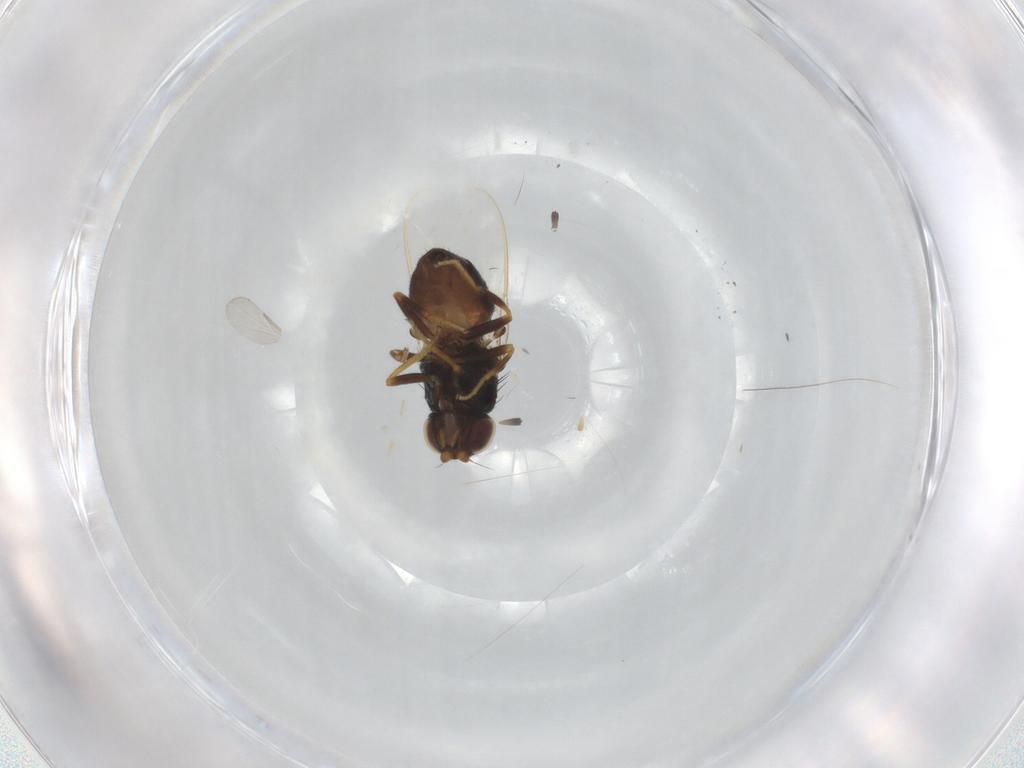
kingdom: Animalia
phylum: Arthropoda
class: Insecta
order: Diptera
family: Chloropidae
